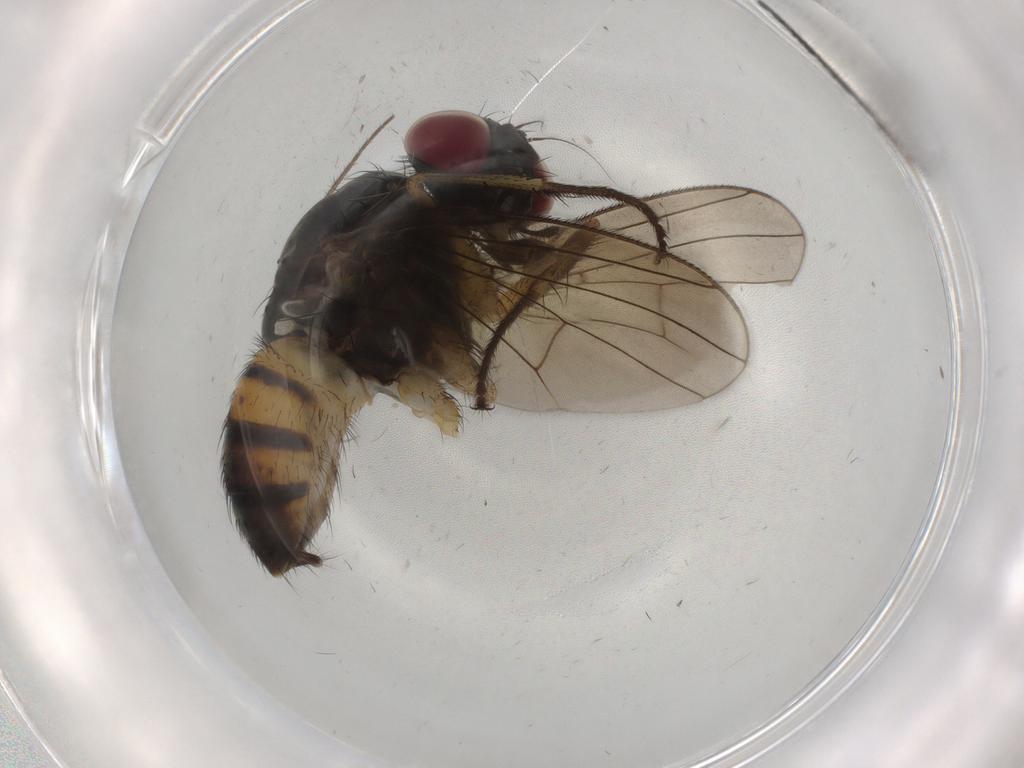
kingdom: Animalia
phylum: Arthropoda
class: Insecta
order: Diptera
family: Muscidae
